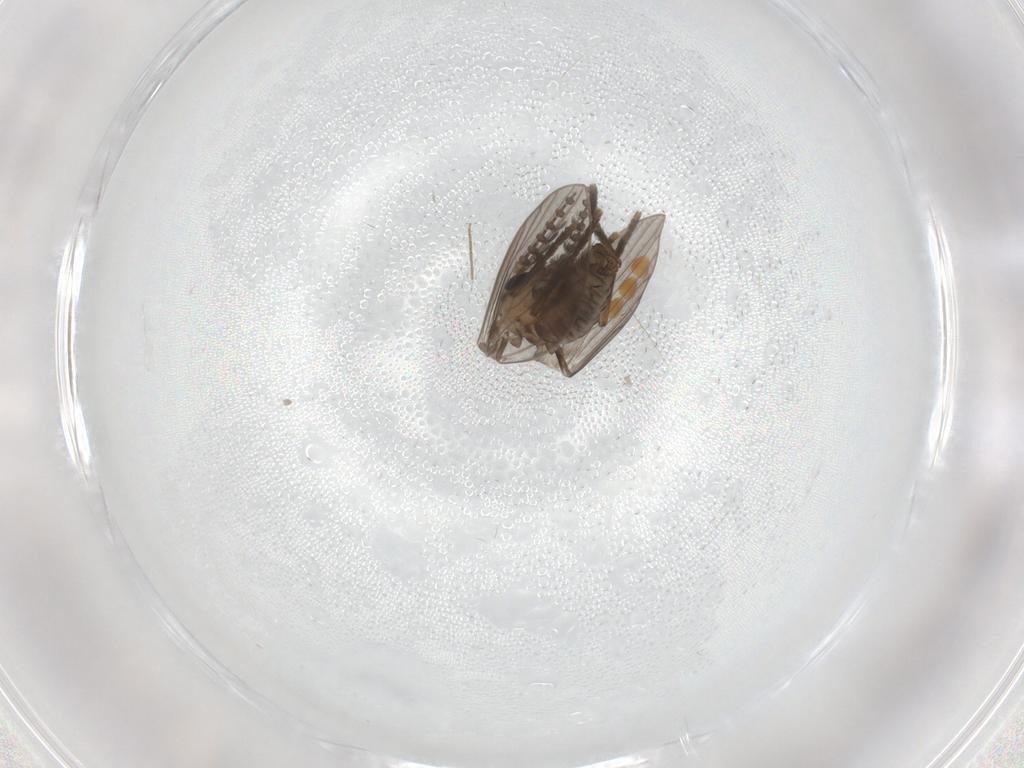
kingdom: Animalia
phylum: Arthropoda
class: Insecta
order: Diptera
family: Psychodidae
